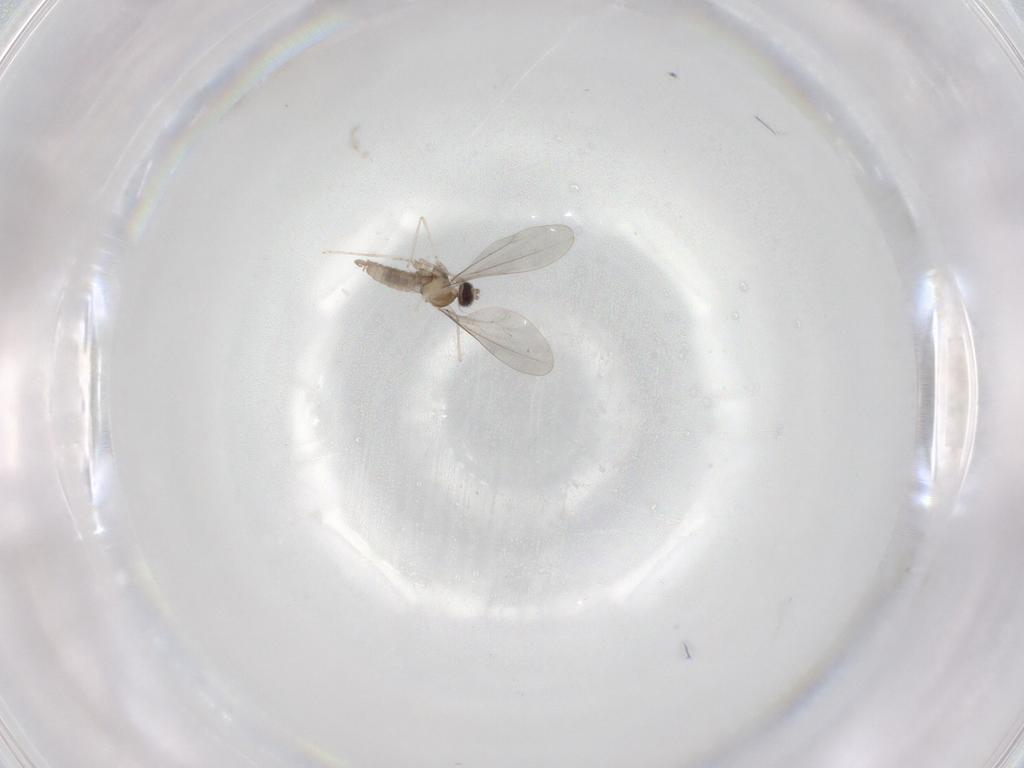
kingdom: Animalia
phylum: Arthropoda
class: Insecta
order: Diptera
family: Cecidomyiidae
